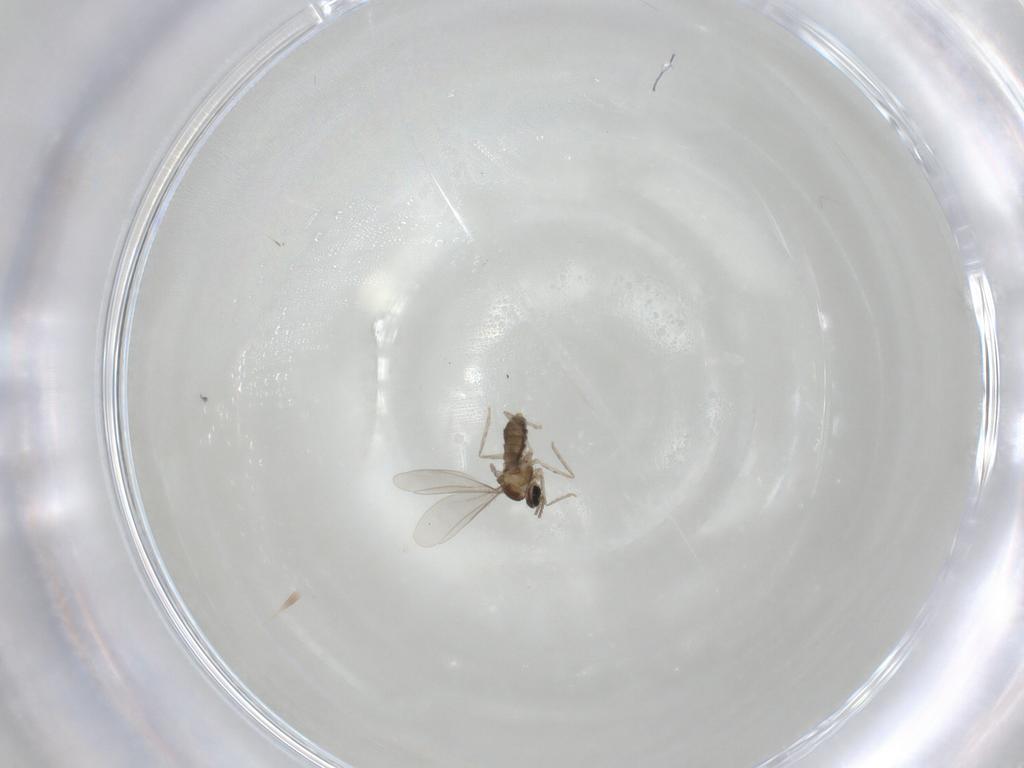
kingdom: Animalia
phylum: Arthropoda
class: Insecta
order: Diptera
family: Cecidomyiidae
